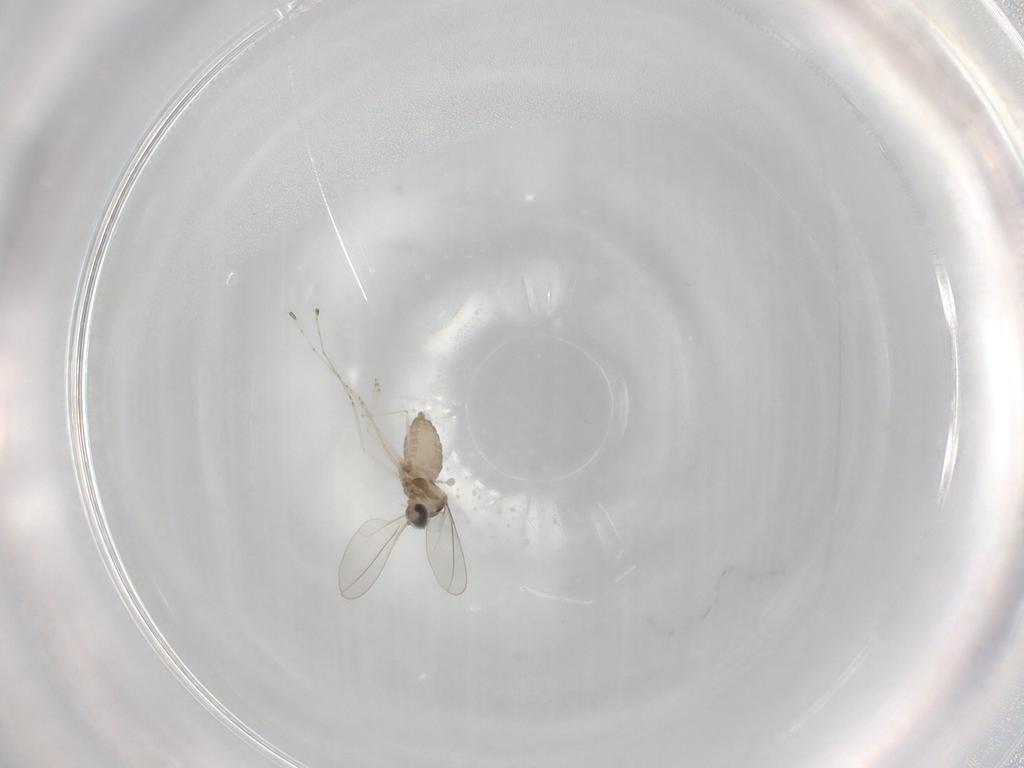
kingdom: Animalia
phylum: Arthropoda
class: Insecta
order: Diptera
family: Cecidomyiidae
